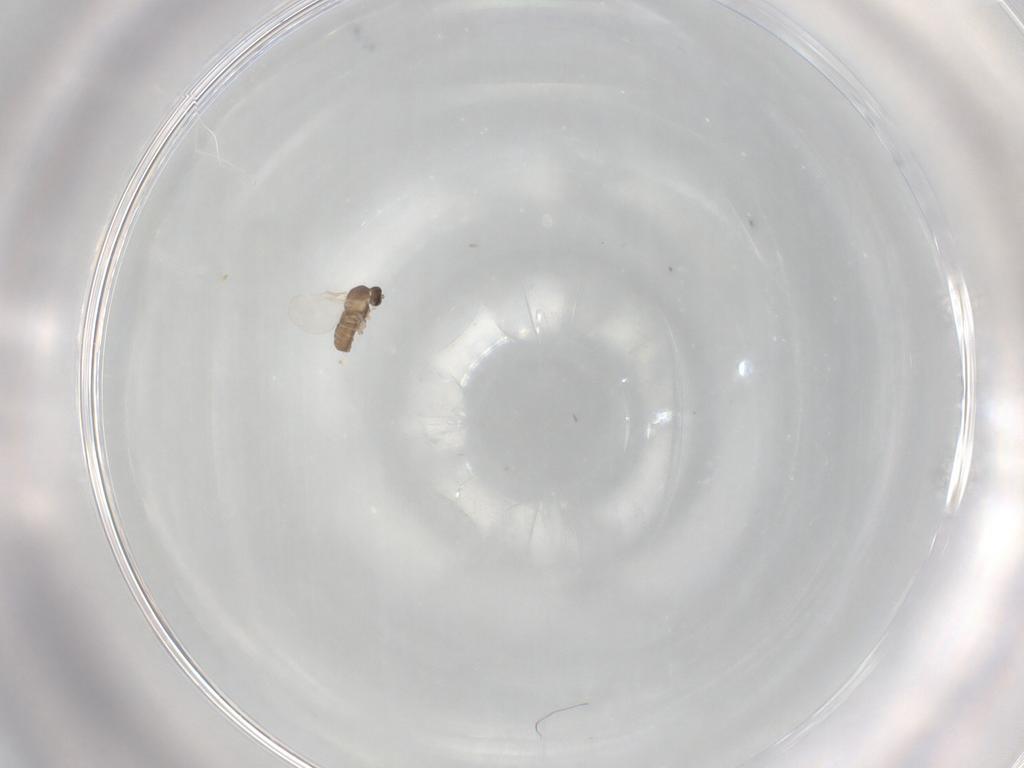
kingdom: Animalia
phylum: Arthropoda
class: Insecta
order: Diptera
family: Cecidomyiidae
